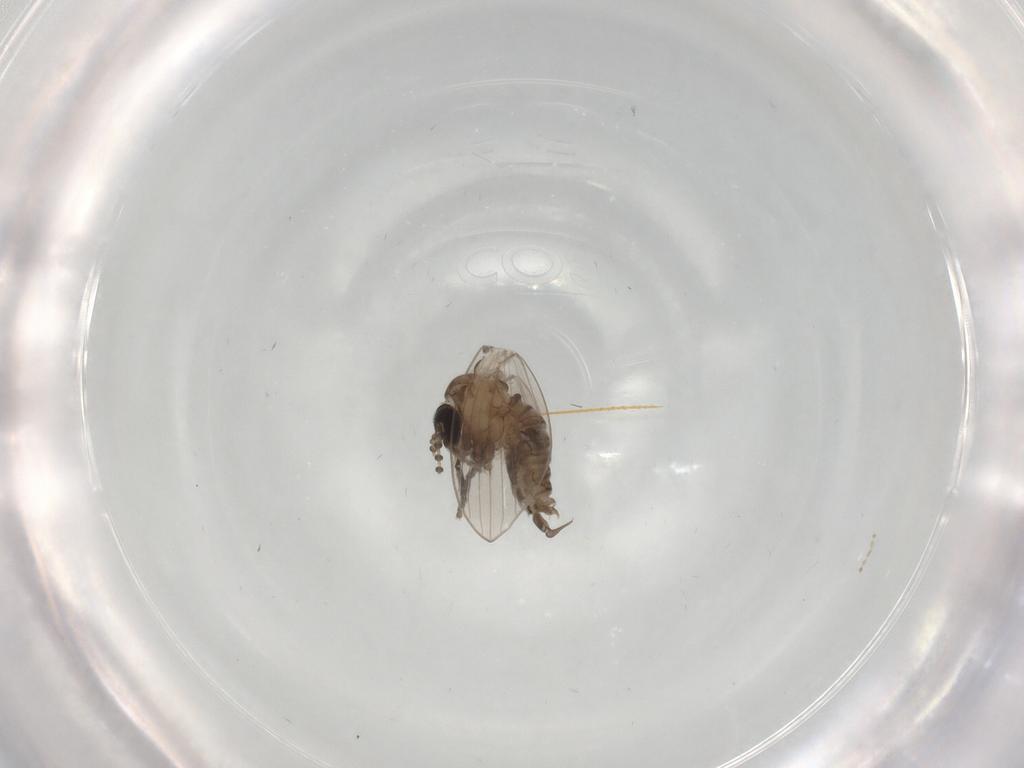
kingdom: Animalia
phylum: Arthropoda
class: Insecta
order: Diptera
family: Psychodidae
